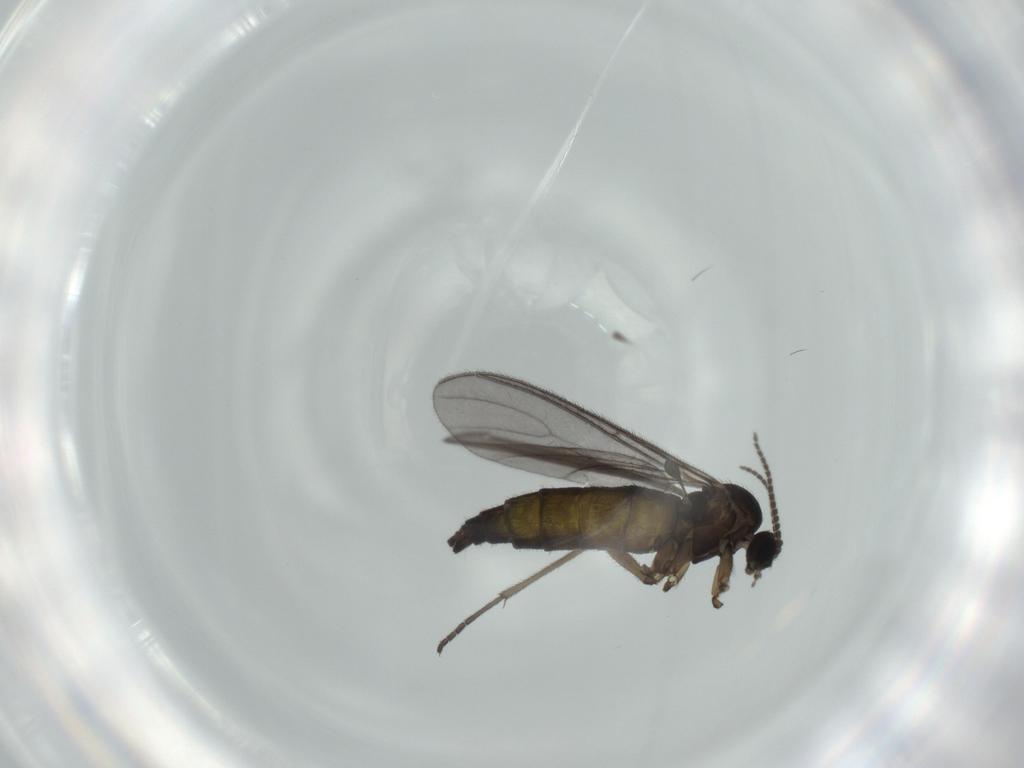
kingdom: Animalia
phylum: Arthropoda
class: Insecta
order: Diptera
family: Sciaridae
